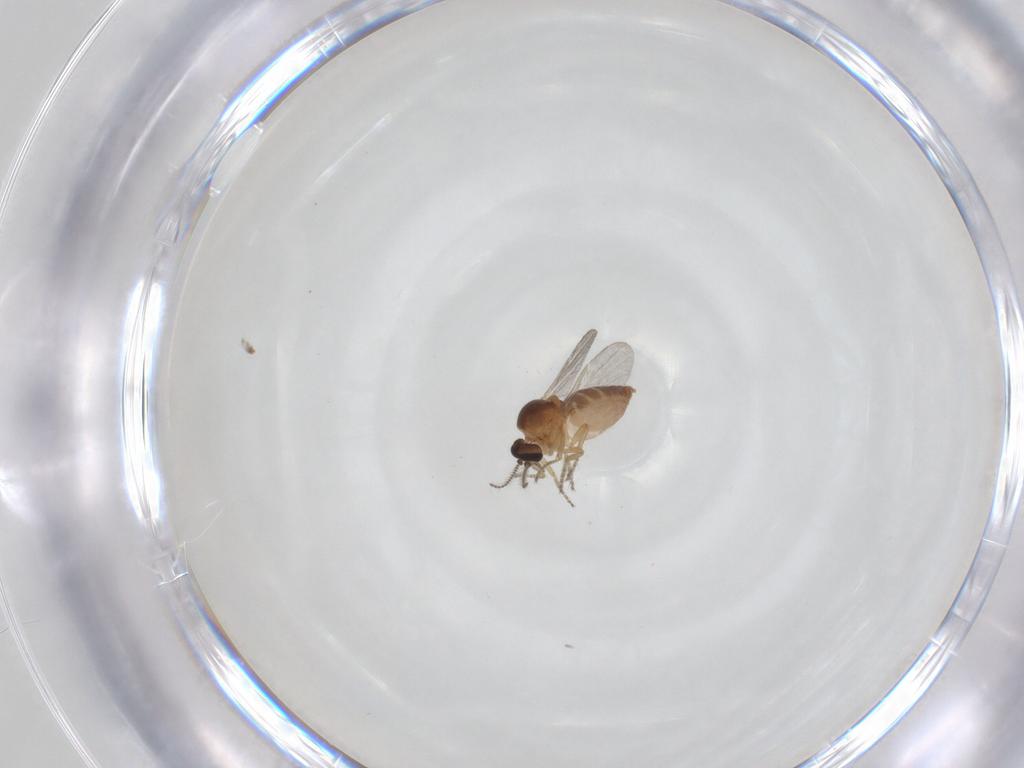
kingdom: Animalia
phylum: Arthropoda
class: Insecta
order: Diptera
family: Ceratopogonidae
